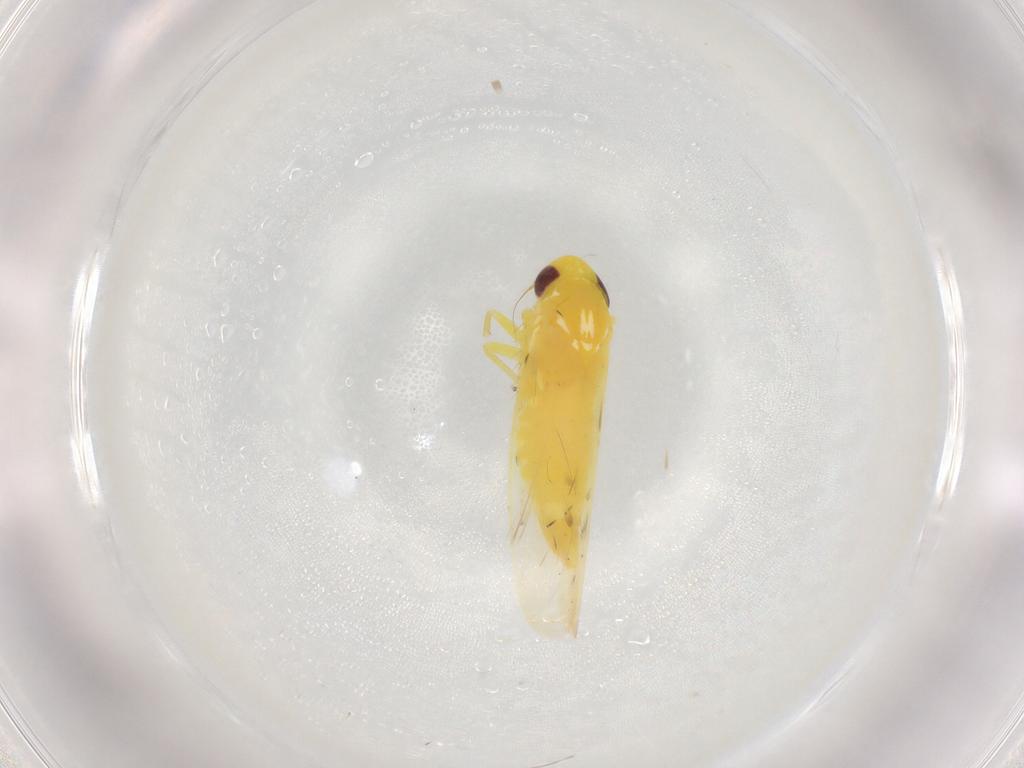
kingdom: Animalia
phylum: Arthropoda
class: Insecta
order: Hemiptera
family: Cicadellidae
